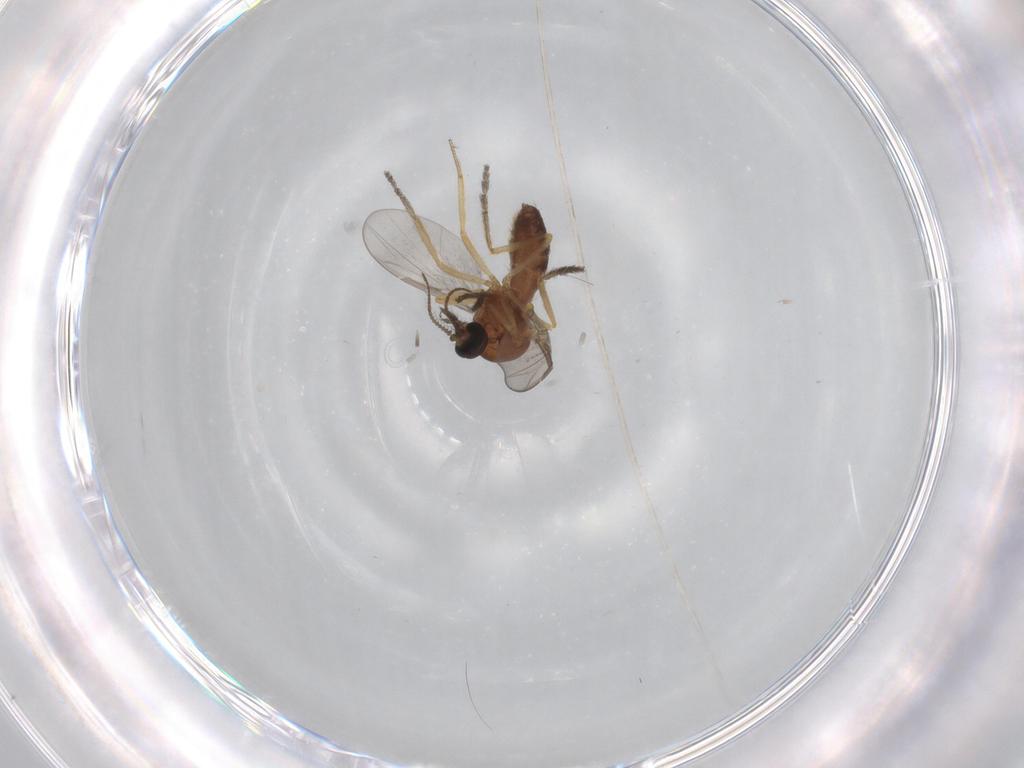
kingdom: Animalia
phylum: Arthropoda
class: Insecta
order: Diptera
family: Ceratopogonidae
